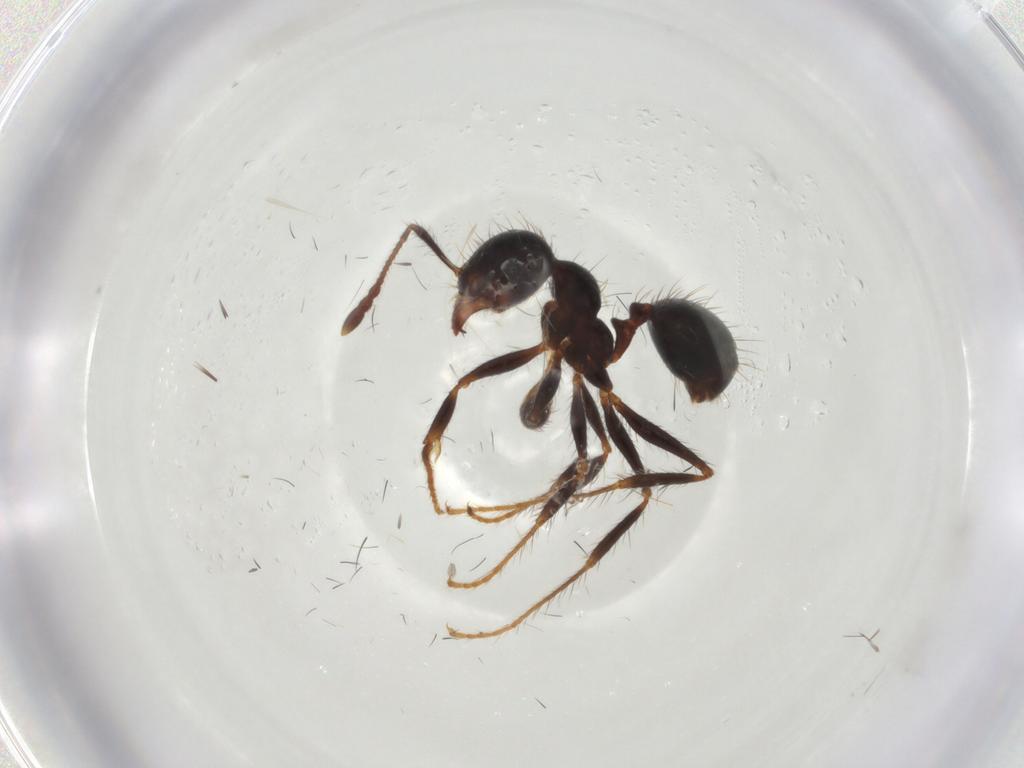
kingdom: Animalia
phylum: Arthropoda
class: Insecta
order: Hymenoptera
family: Formicidae
